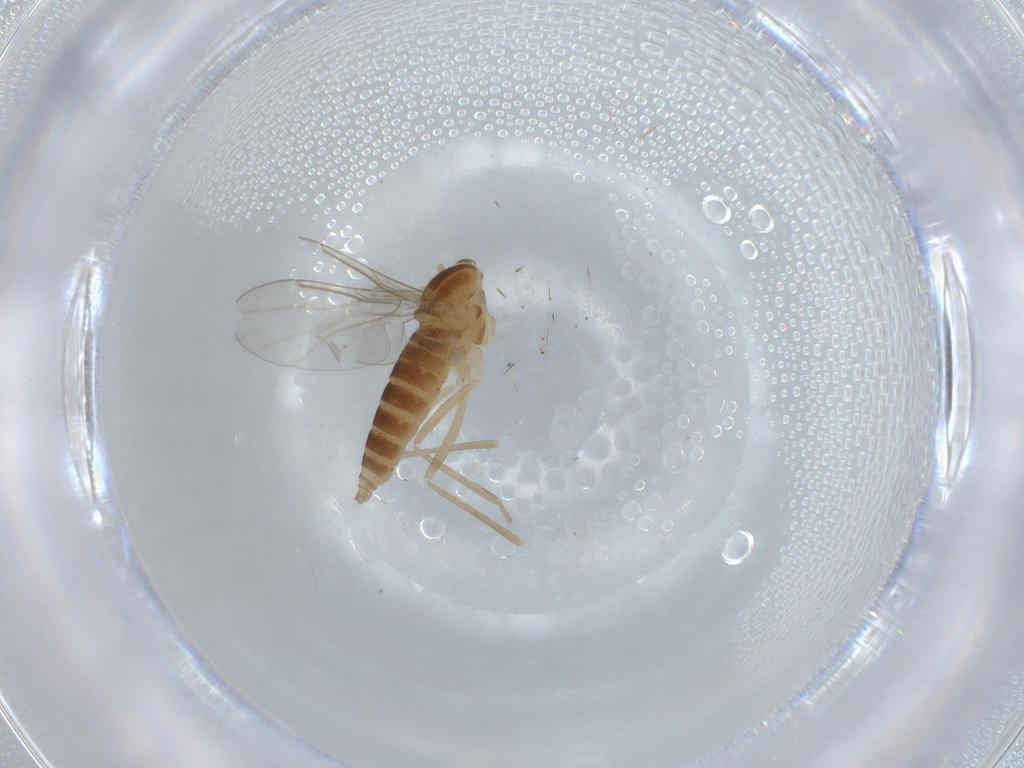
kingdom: Animalia
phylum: Arthropoda
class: Insecta
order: Diptera
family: Cecidomyiidae
